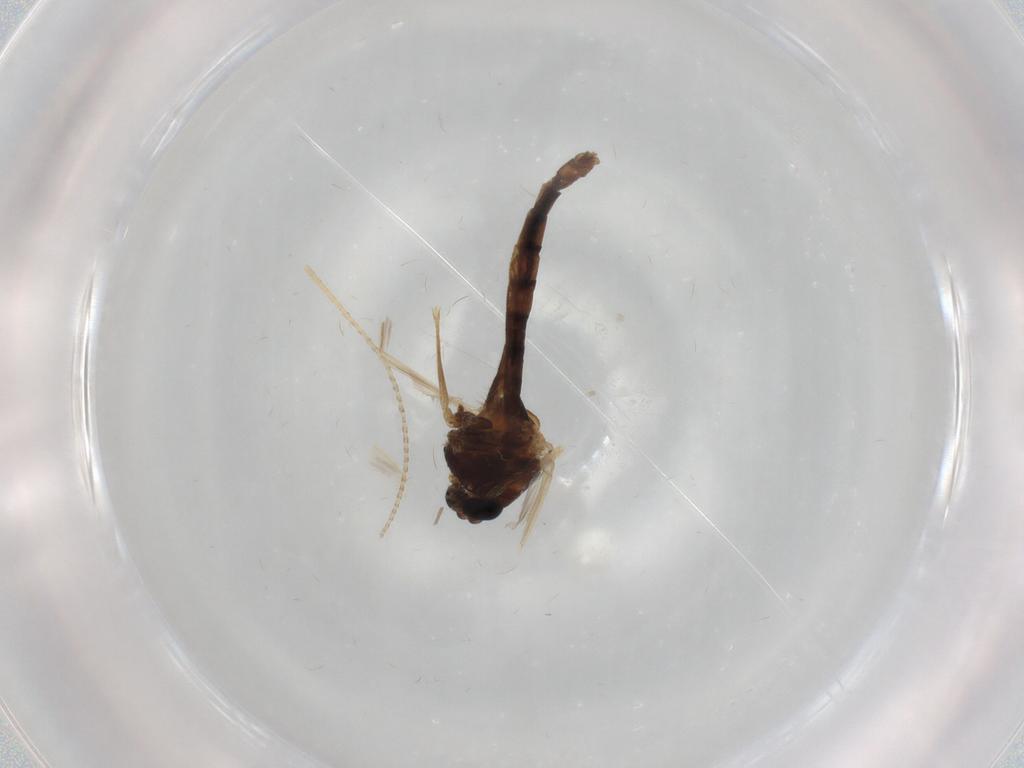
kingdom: Animalia
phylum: Arthropoda
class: Insecta
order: Diptera
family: Chironomidae
